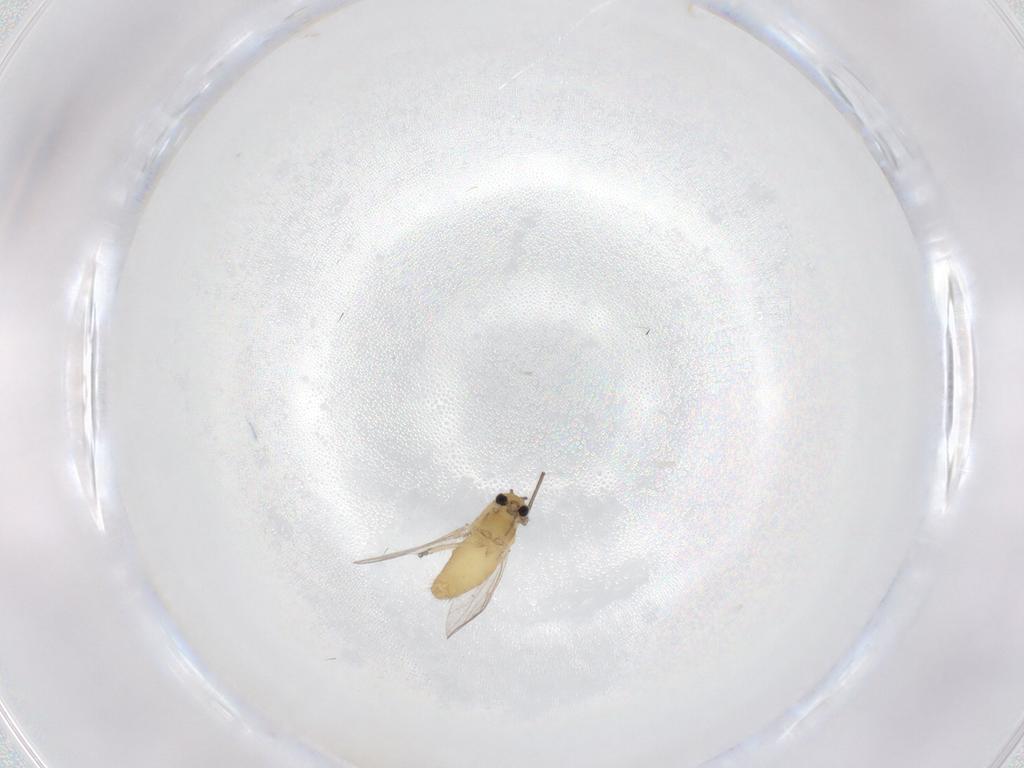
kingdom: Animalia
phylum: Arthropoda
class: Insecta
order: Diptera
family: Chironomidae
